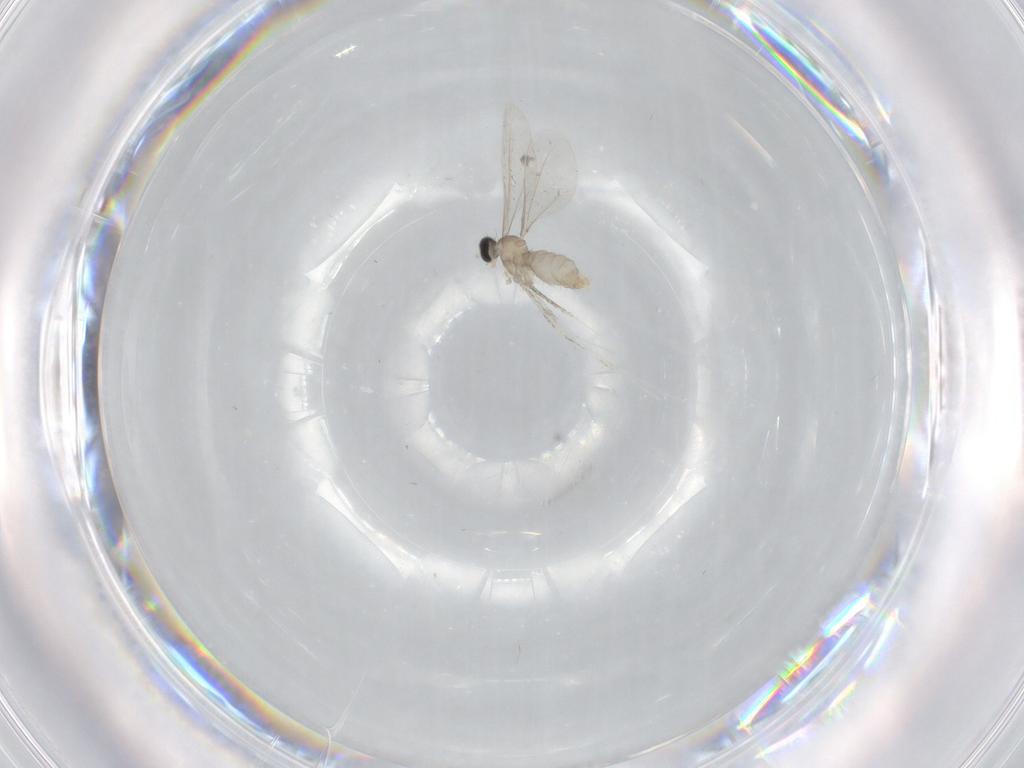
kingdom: Animalia
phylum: Arthropoda
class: Insecta
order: Diptera
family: Cecidomyiidae
